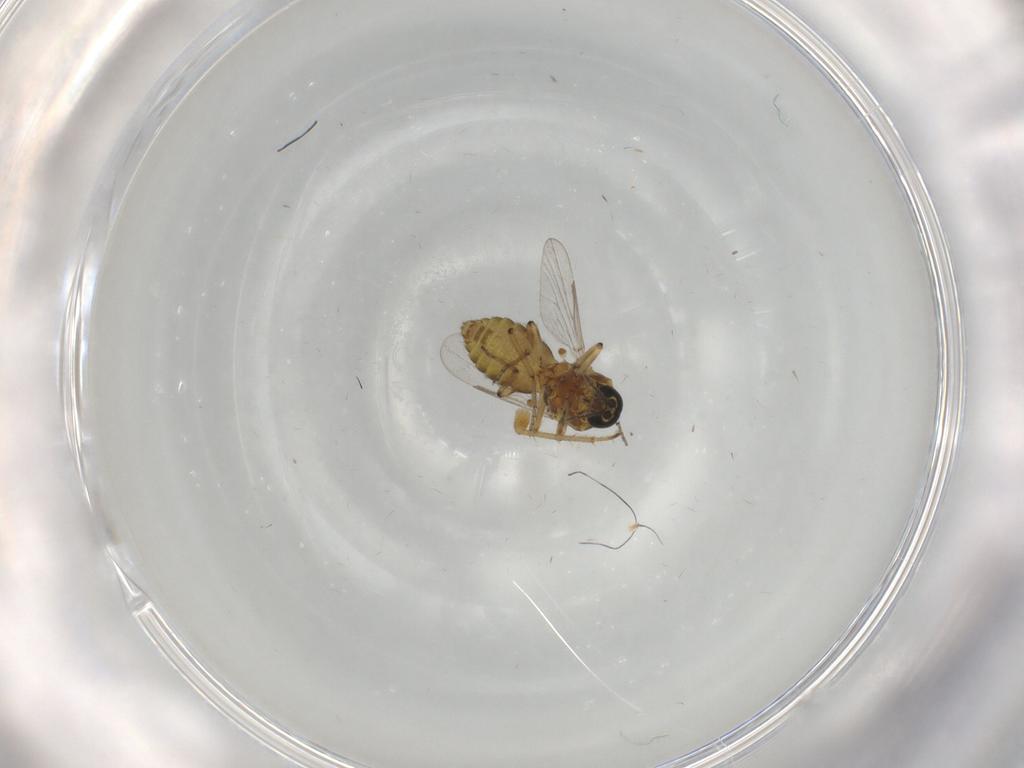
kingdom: Animalia
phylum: Arthropoda
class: Insecta
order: Diptera
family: Ceratopogonidae
